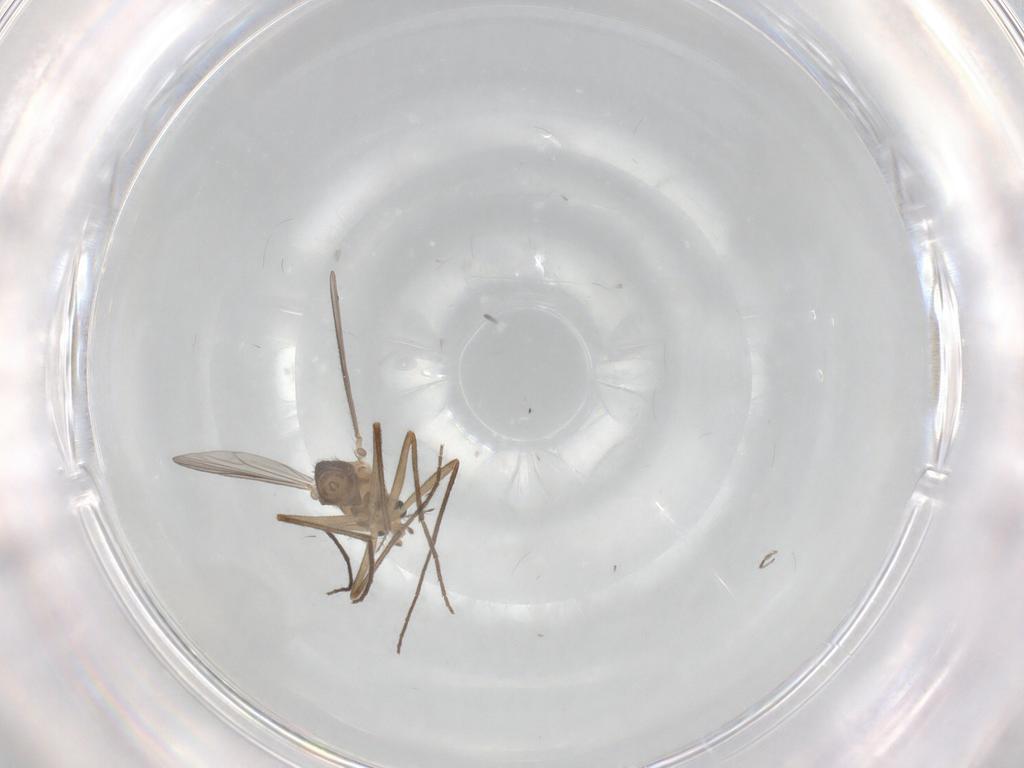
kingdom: Animalia
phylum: Arthropoda
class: Insecta
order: Diptera
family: Chironomidae
